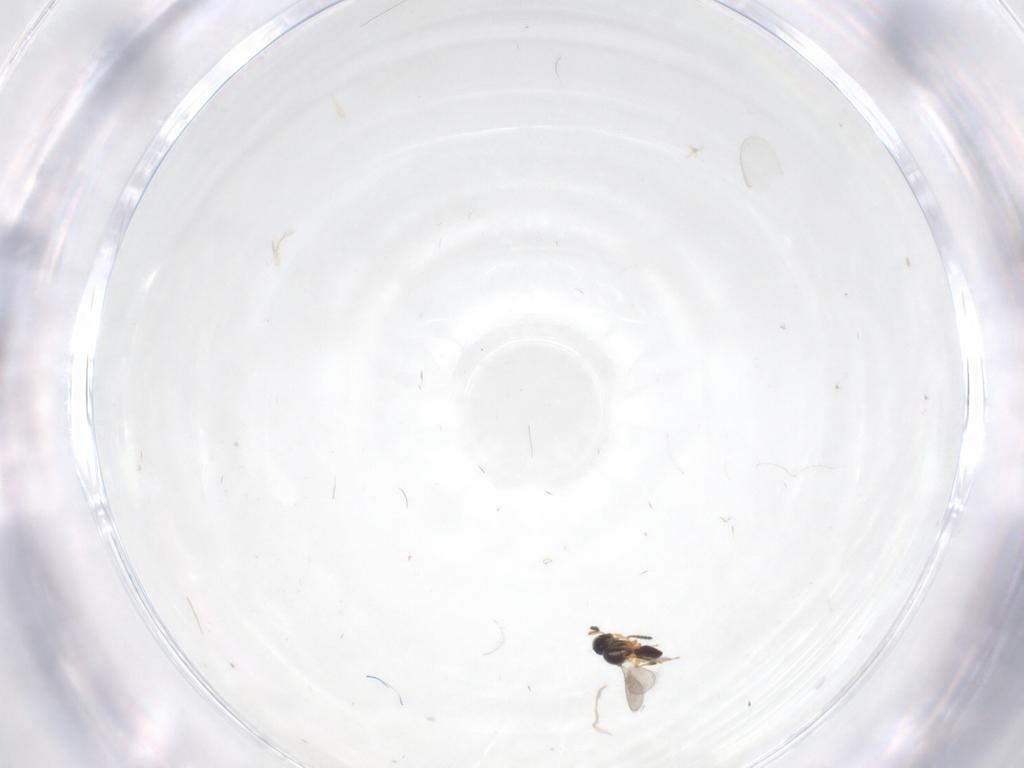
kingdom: Animalia
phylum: Arthropoda
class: Insecta
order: Hymenoptera
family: Platygastridae
